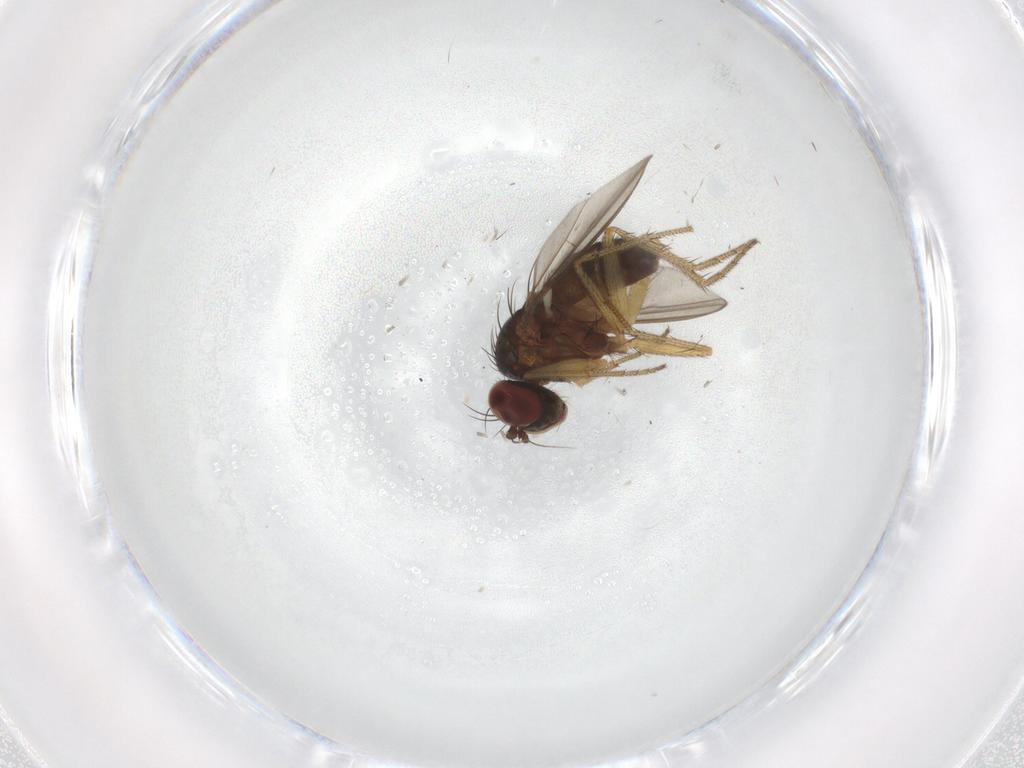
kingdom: Animalia
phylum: Arthropoda
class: Insecta
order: Diptera
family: Dolichopodidae
